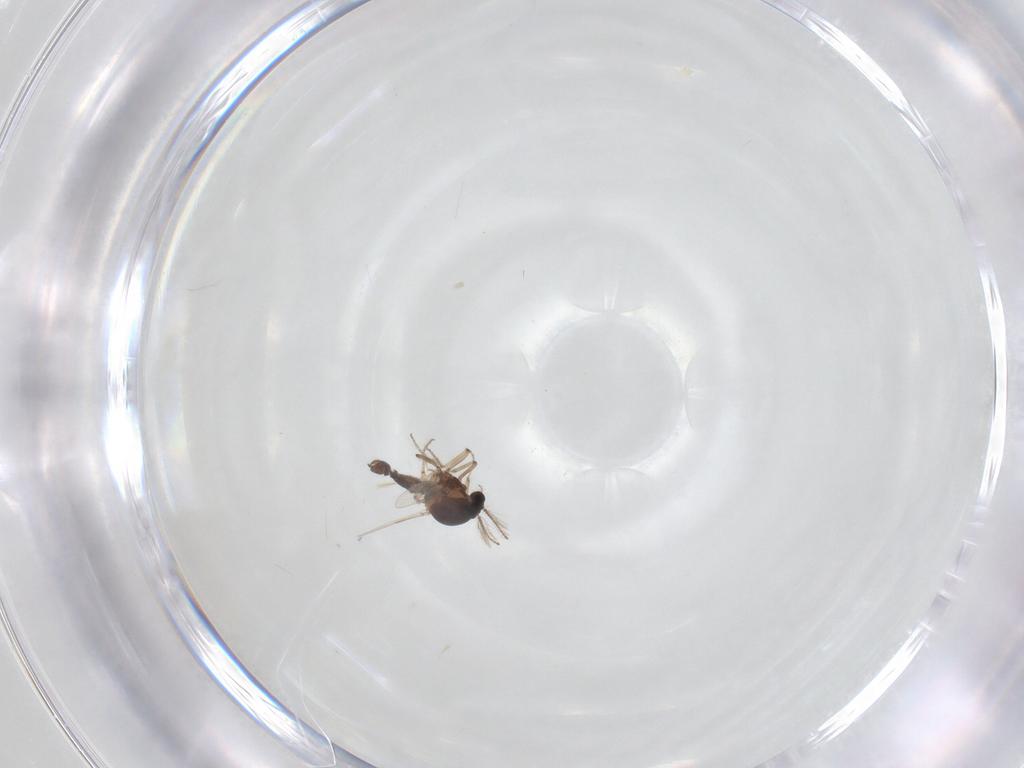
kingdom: Animalia
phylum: Arthropoda
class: Insecta
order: Diptera
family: Ceratopogonidae
